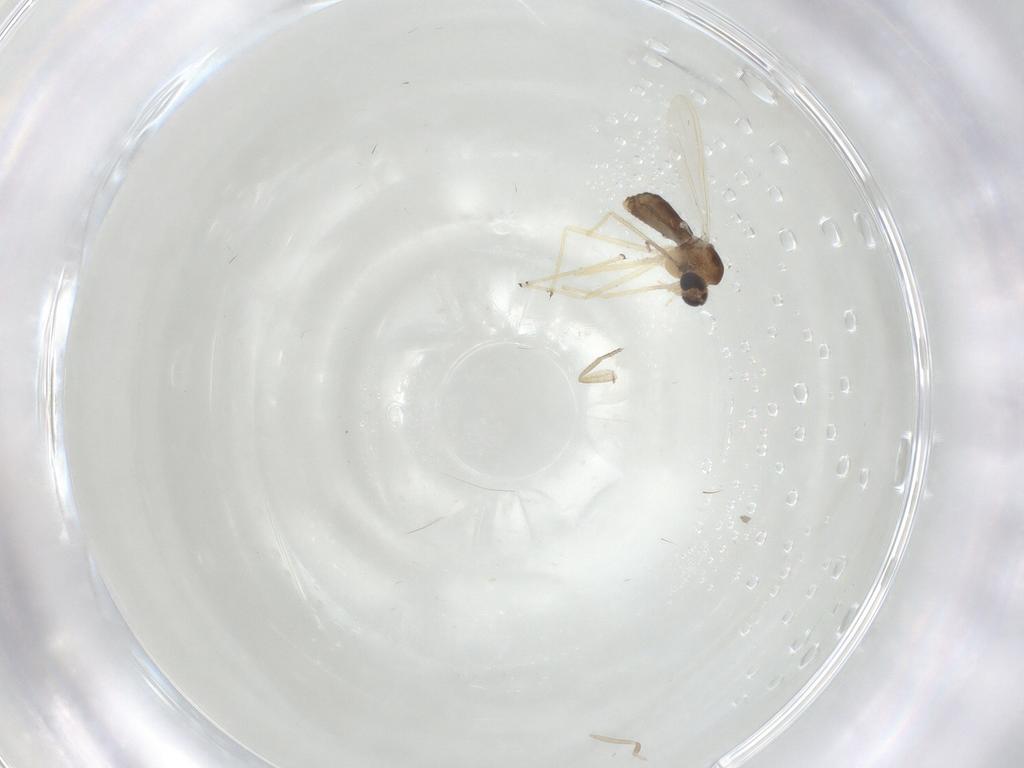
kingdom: Animalia
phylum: Arthropoda
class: Insecta
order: Diptera
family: Chironomidae
